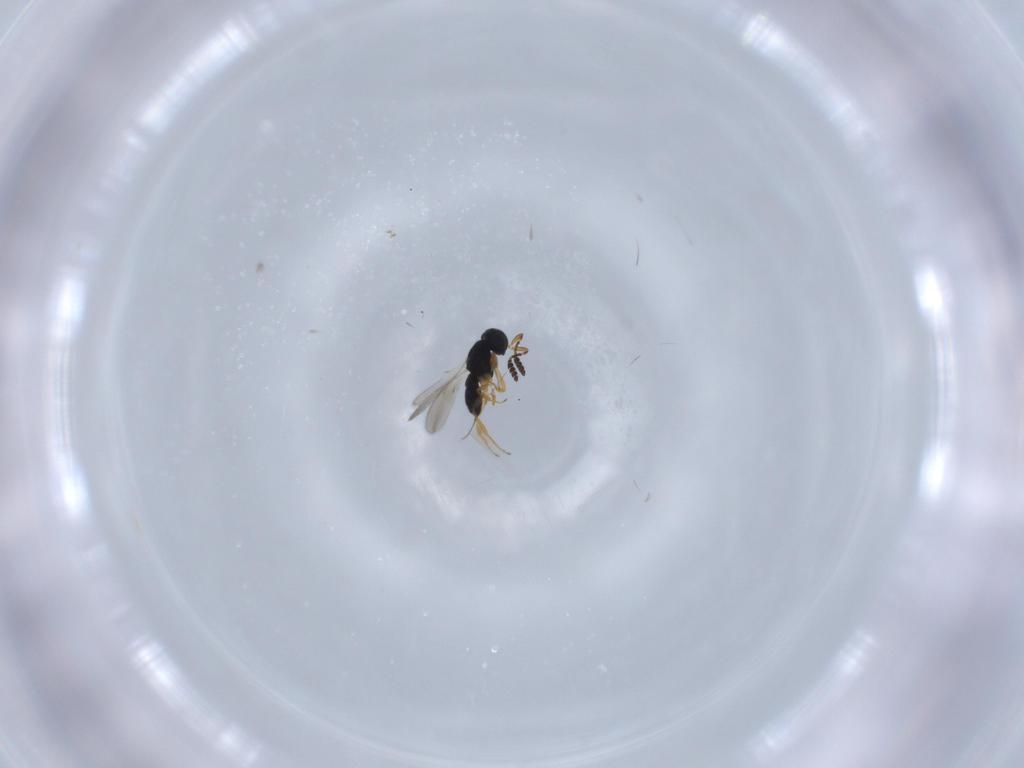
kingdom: Animalia
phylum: Arthropoda
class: Insecta
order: Hymenoptera
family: Scelionidae
